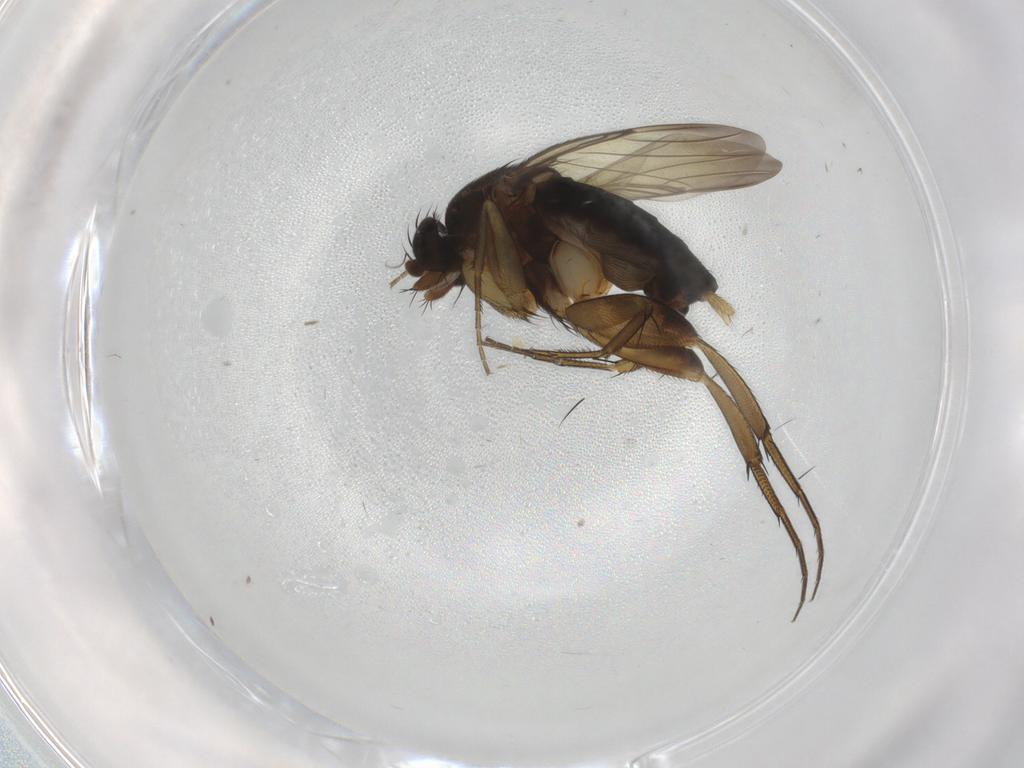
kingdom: Animalia
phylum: Arthropoda
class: Insecta
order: Diptera
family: Phoridae
